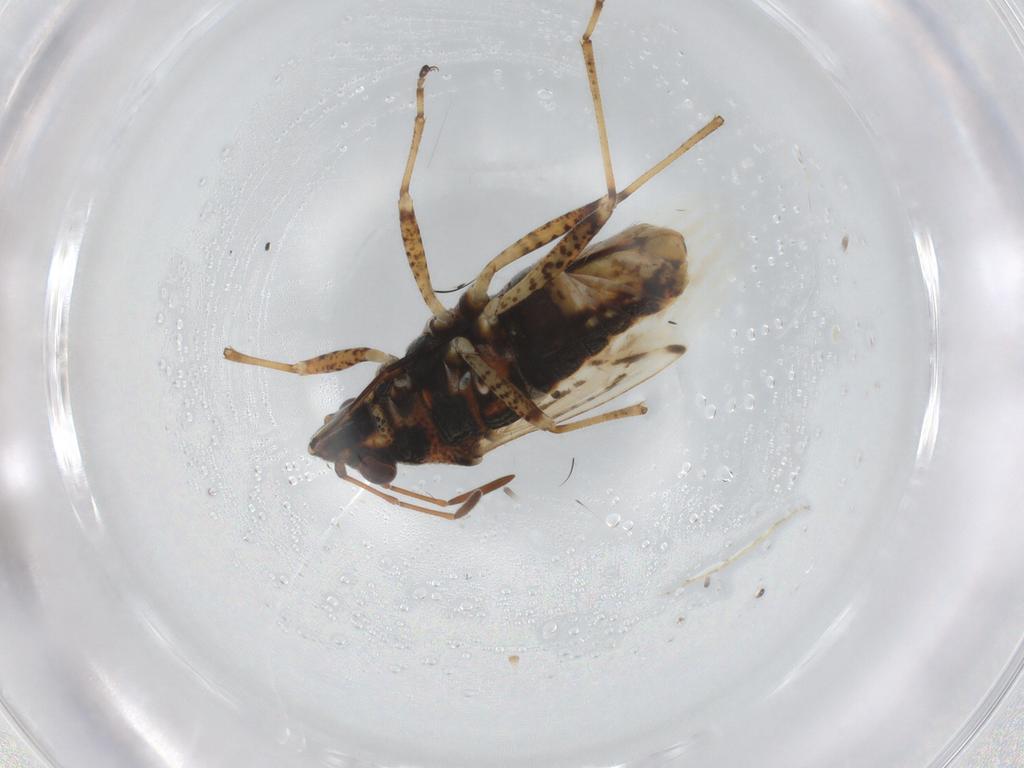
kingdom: Animalia
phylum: Arthropoda
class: Insecta
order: Hemiptera
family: Lygaeidae
